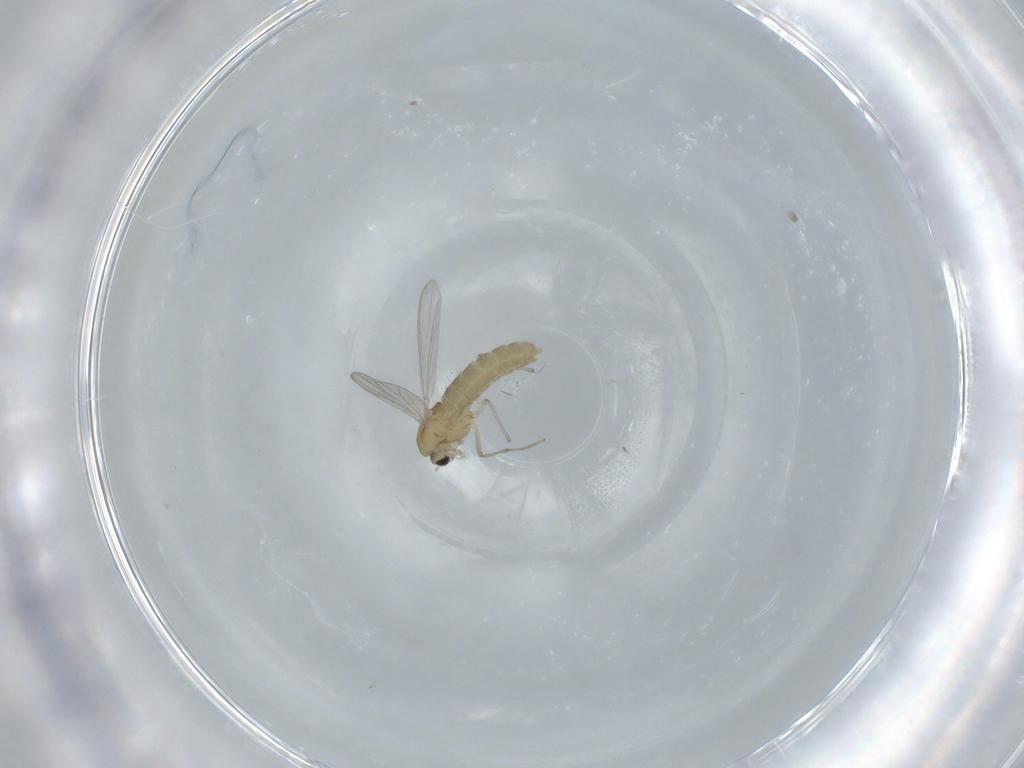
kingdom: Animalia
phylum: Arthropoda
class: Insecta
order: Diptera
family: Cecidomyiidae
